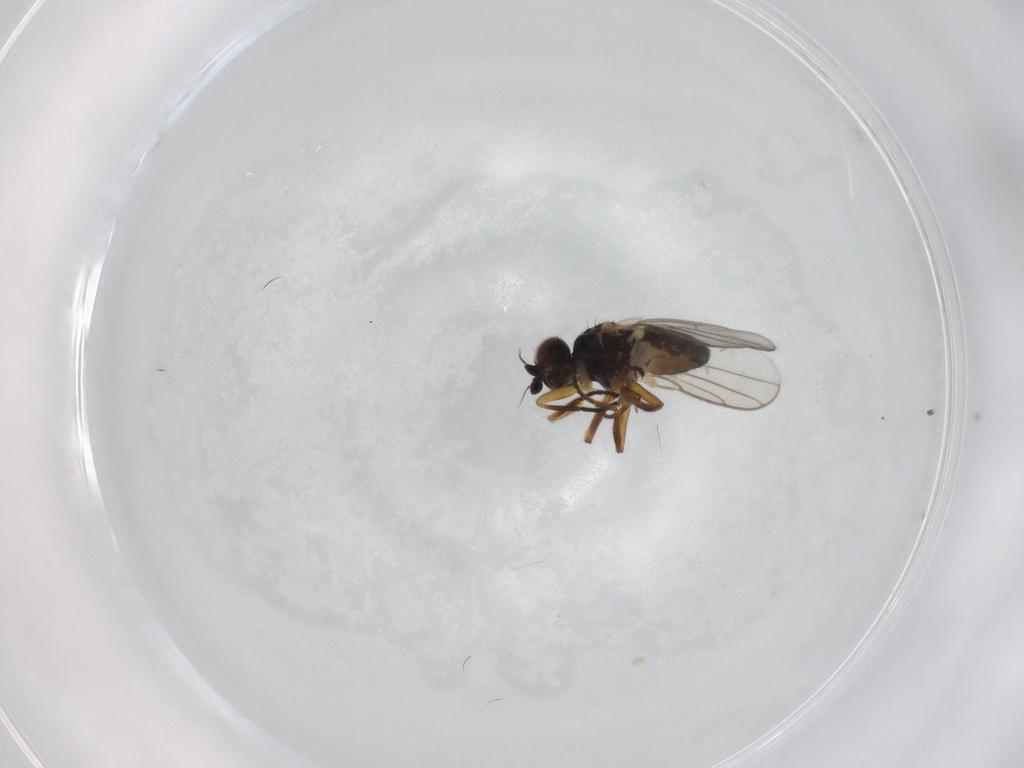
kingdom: Animalia
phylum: Arthropoda
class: Insecta
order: Diptera
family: Chloropidae
